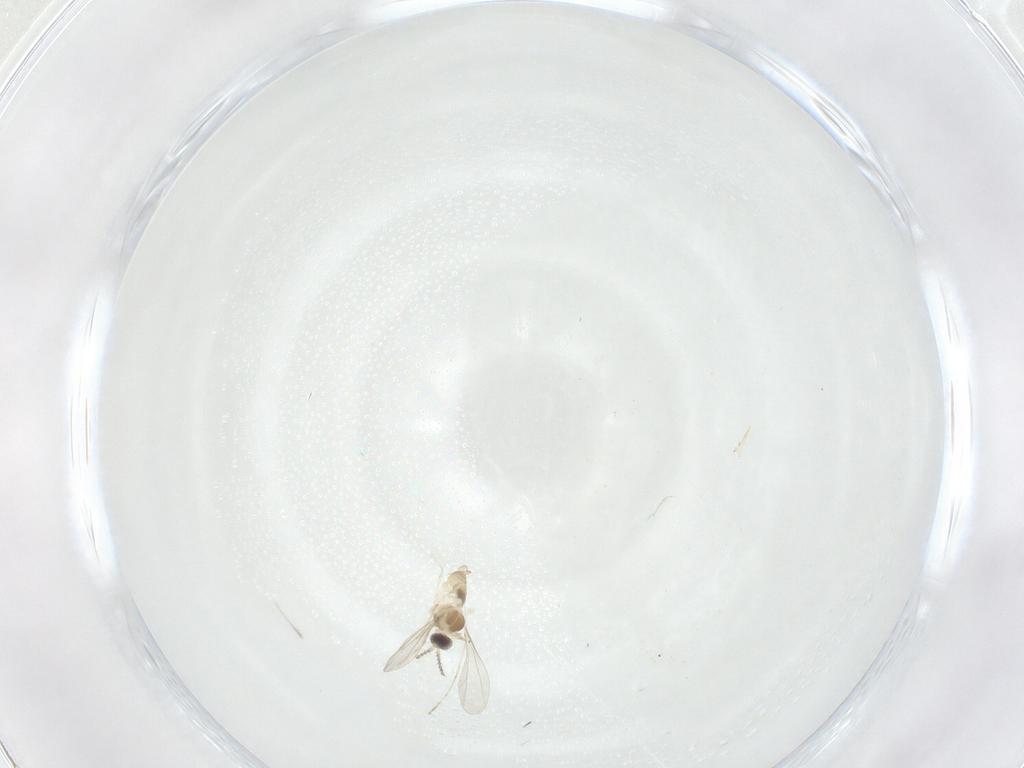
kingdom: Animalia
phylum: Arthropoda
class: Insecta
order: Diptera
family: Cecidomyiidae
